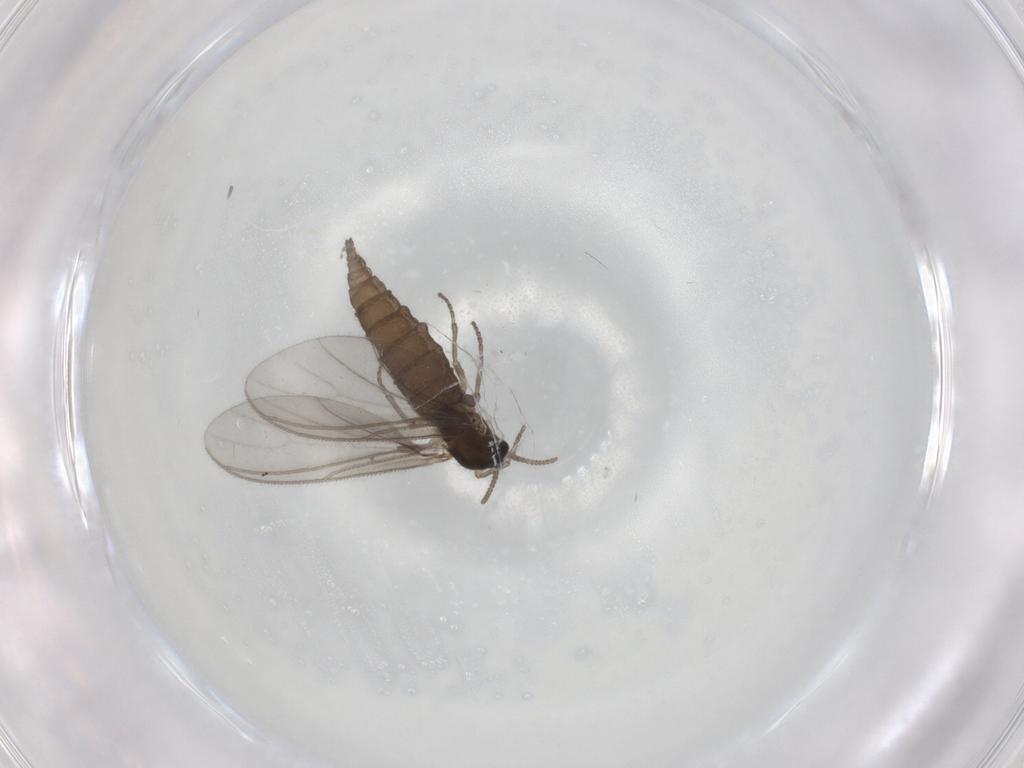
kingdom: Animalia
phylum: Arthropoda
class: Insecta
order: Diptera
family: Sciaridae
